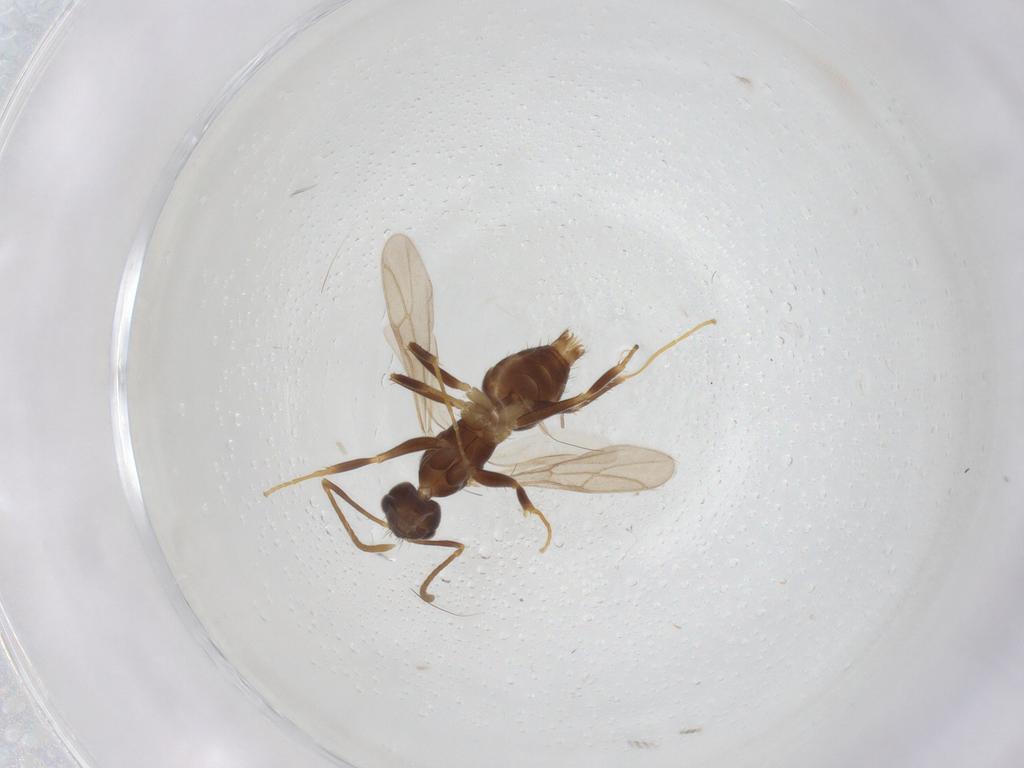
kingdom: Animalia
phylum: Arthropoda
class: Insecta
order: Hymenoptera
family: Formicidae
